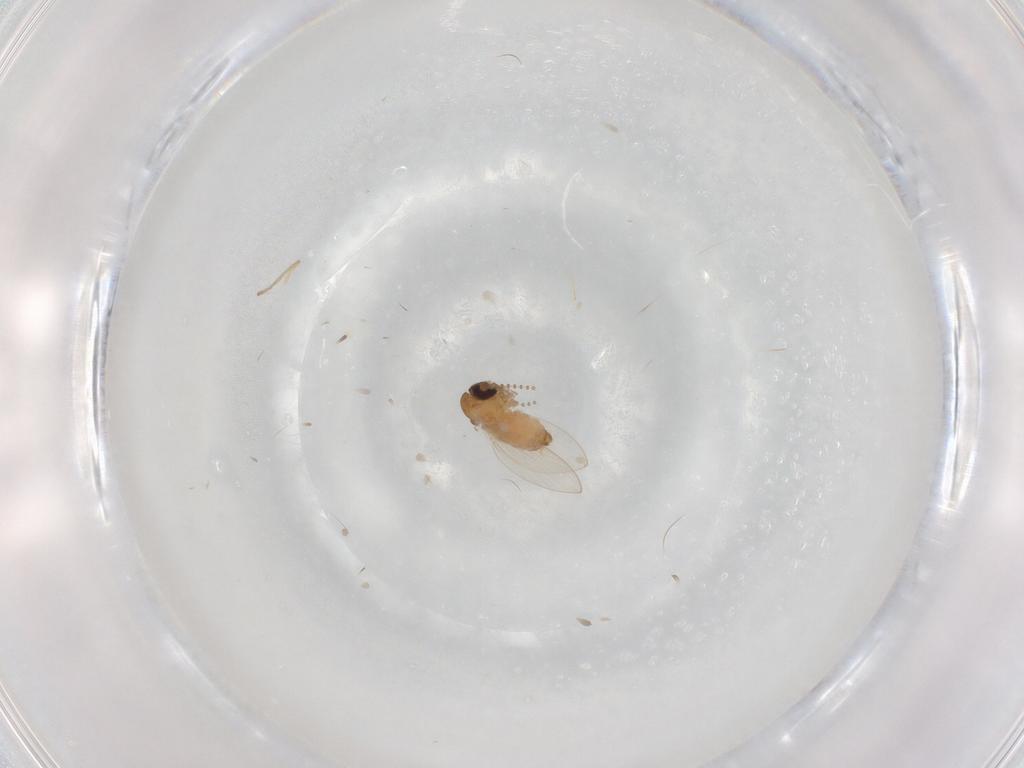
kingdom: Animalia
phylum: Arthropoda
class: Insecta
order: Diptera
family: Psychodidae
